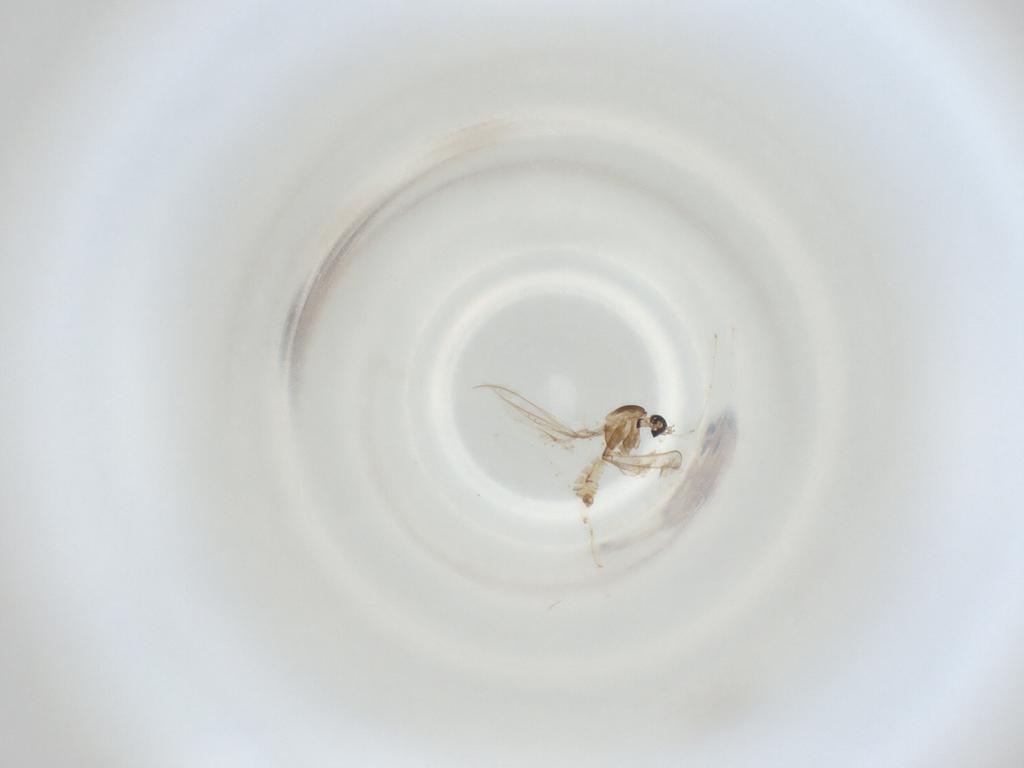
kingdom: Animalia
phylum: Arthropoda
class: Insecta
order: Diptera
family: Cecidomyiidae
